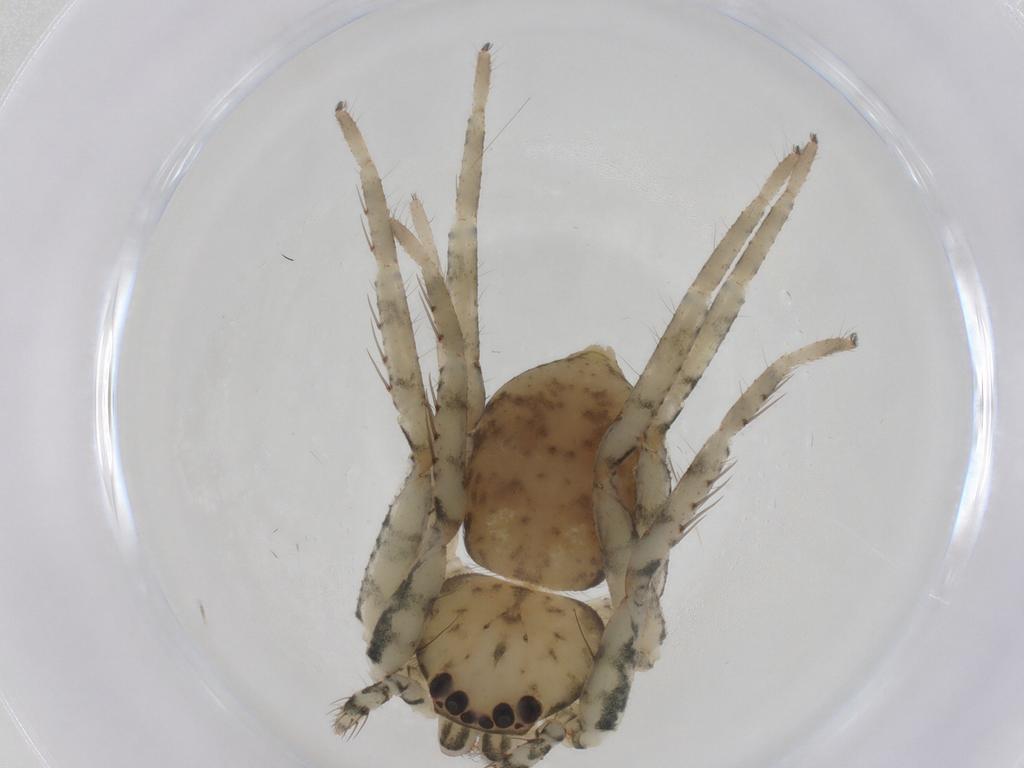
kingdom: Animalia
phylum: Arthropoda
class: Arachnida
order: Araneae
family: Selenopidae
